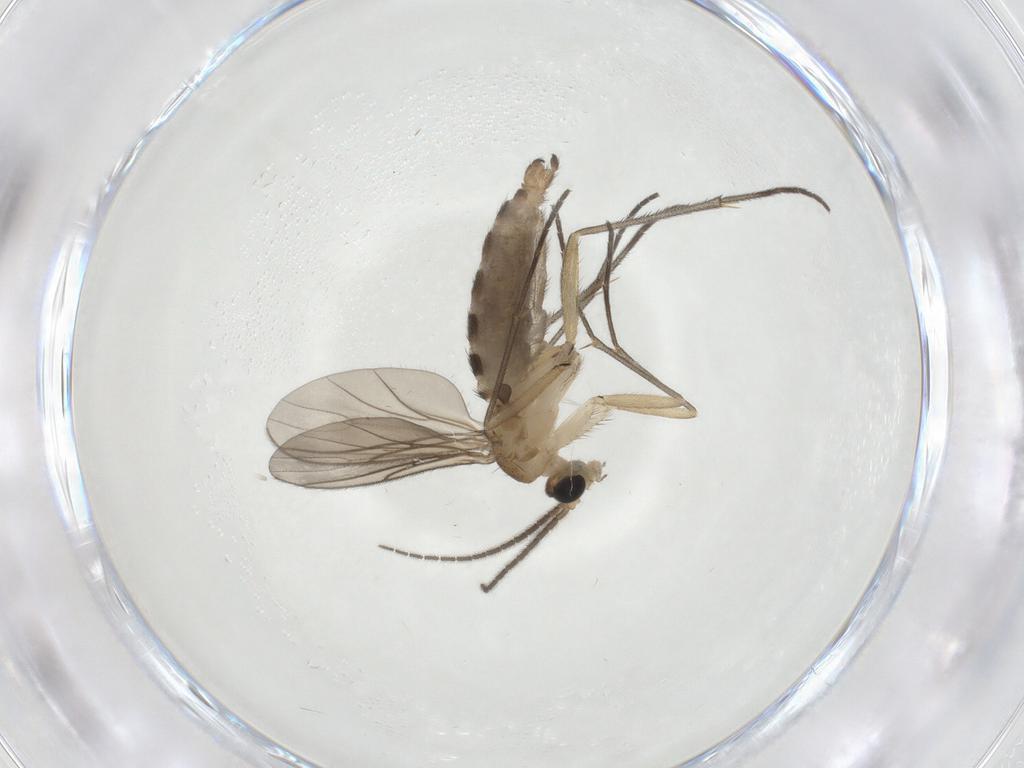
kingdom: Animalia
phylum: Arthropoda
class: Insecta
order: Diptera
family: Sciaridae
